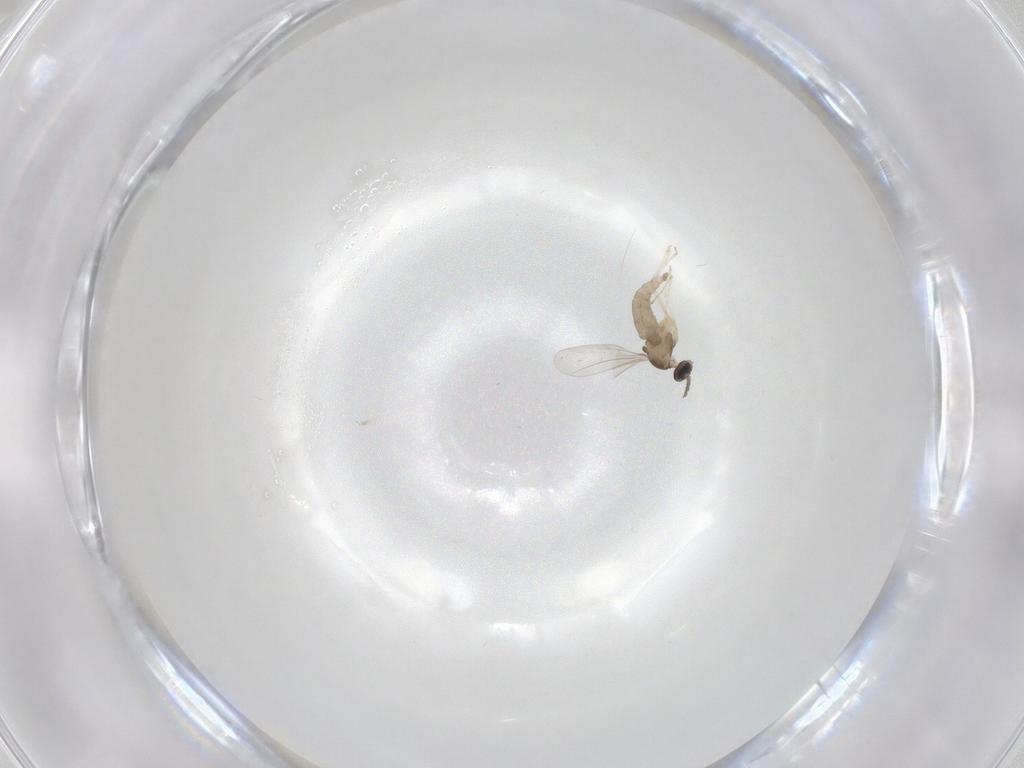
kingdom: Animalia
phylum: Arthropoda
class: Insecta
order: Diptera
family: Cecidomyiidae
